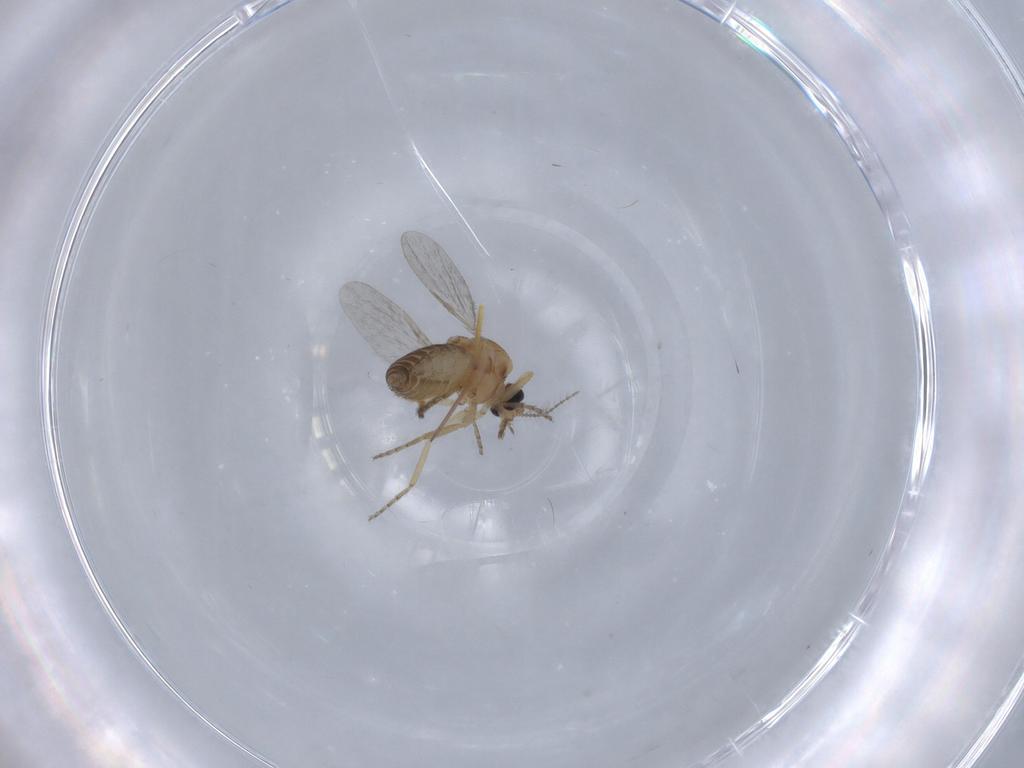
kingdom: Animalia
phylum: Arthropoda
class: Insecta
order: Diptera
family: Ceratopogonidae
